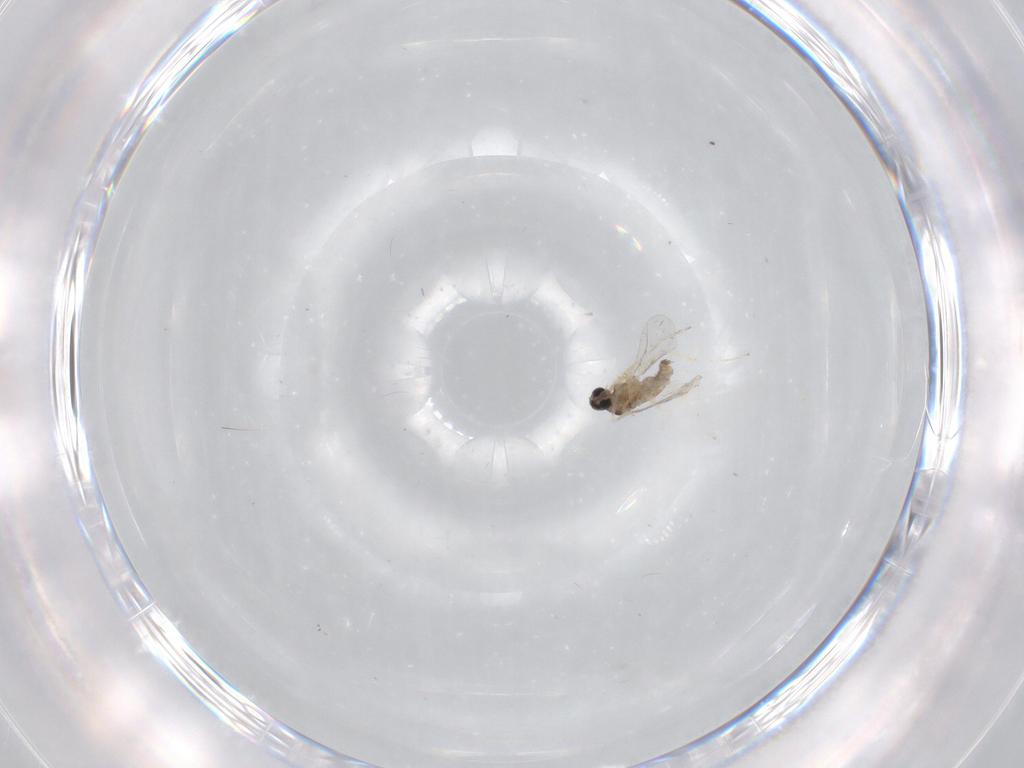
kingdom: Animalia
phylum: Arthropoda
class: Insecta
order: Diptera
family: Cecidomyiidae
